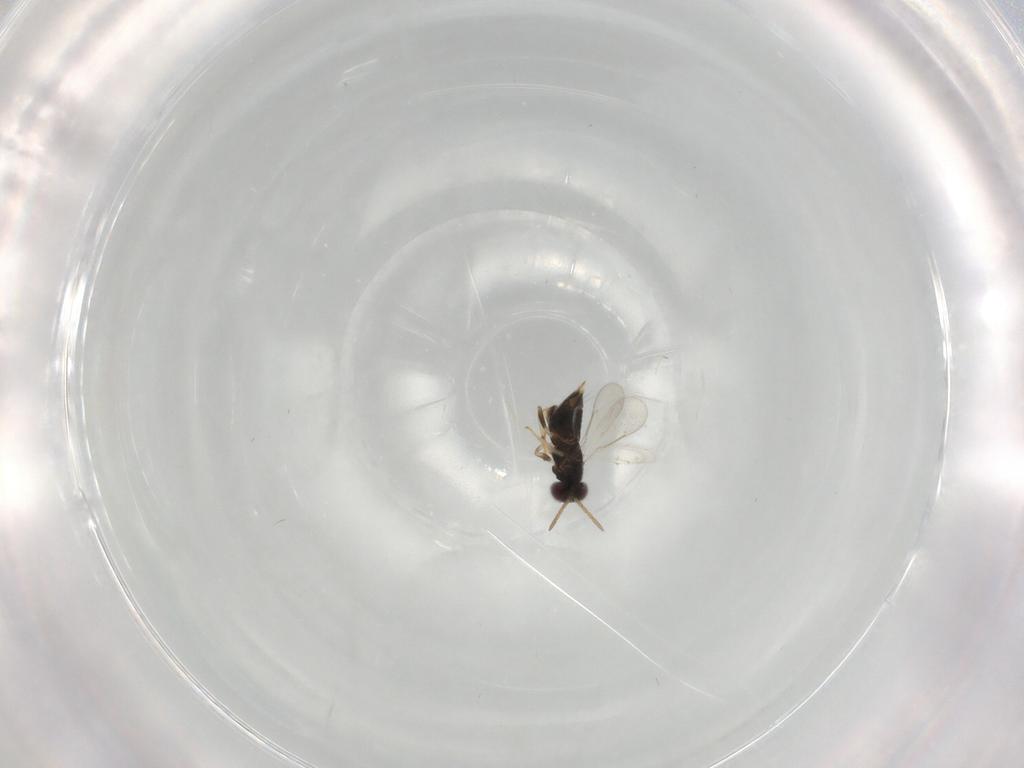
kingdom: Animalia
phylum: Arthropoda
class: Insecta
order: Hymenoptera
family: Aphelinidae
